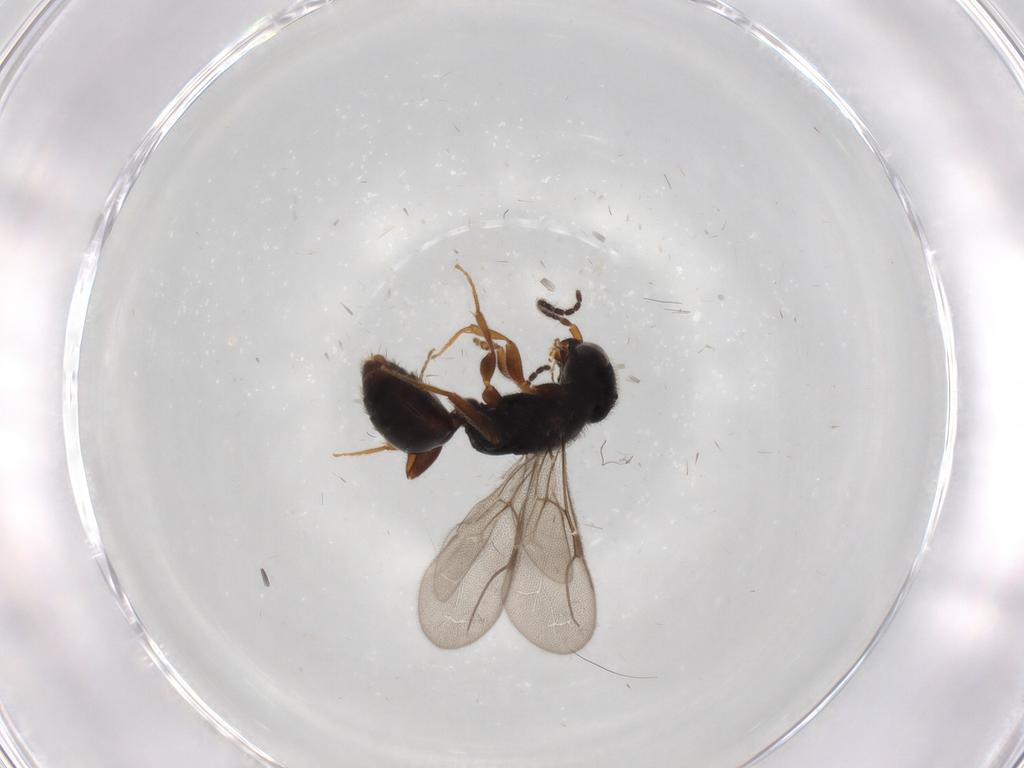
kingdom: Animalia
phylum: Arthropoda
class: Insecta
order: Hymenoptera
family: Bethylidae
